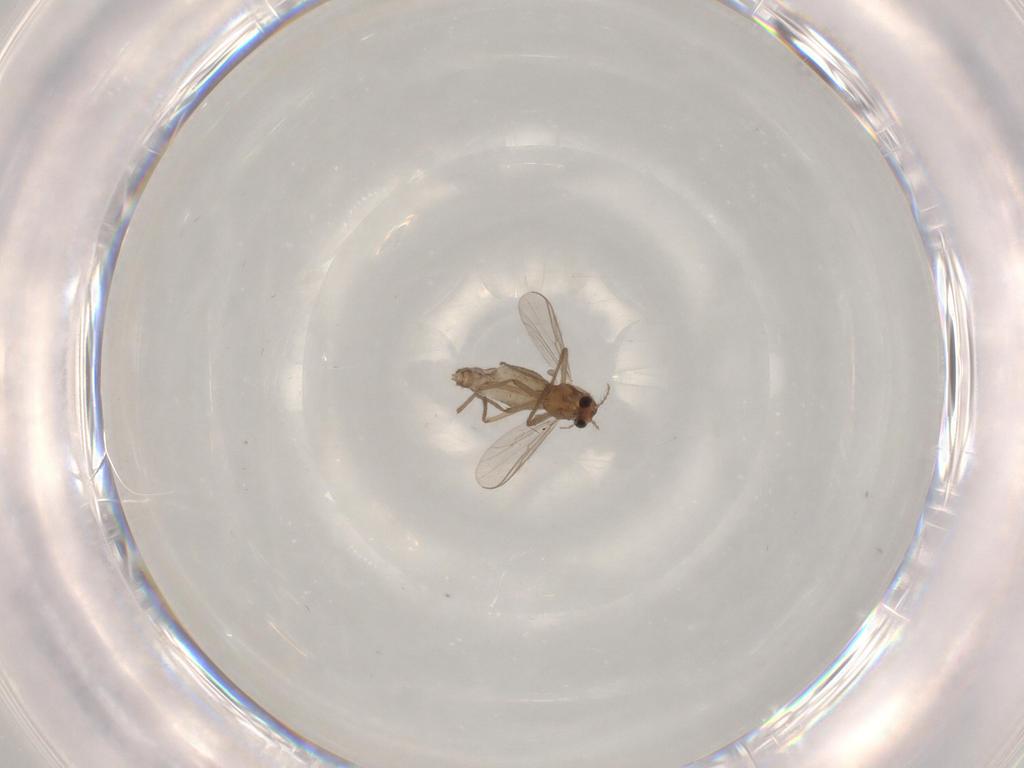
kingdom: Animalia
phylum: Arthropoda
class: Insecta
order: Diptera
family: Chironomidae
